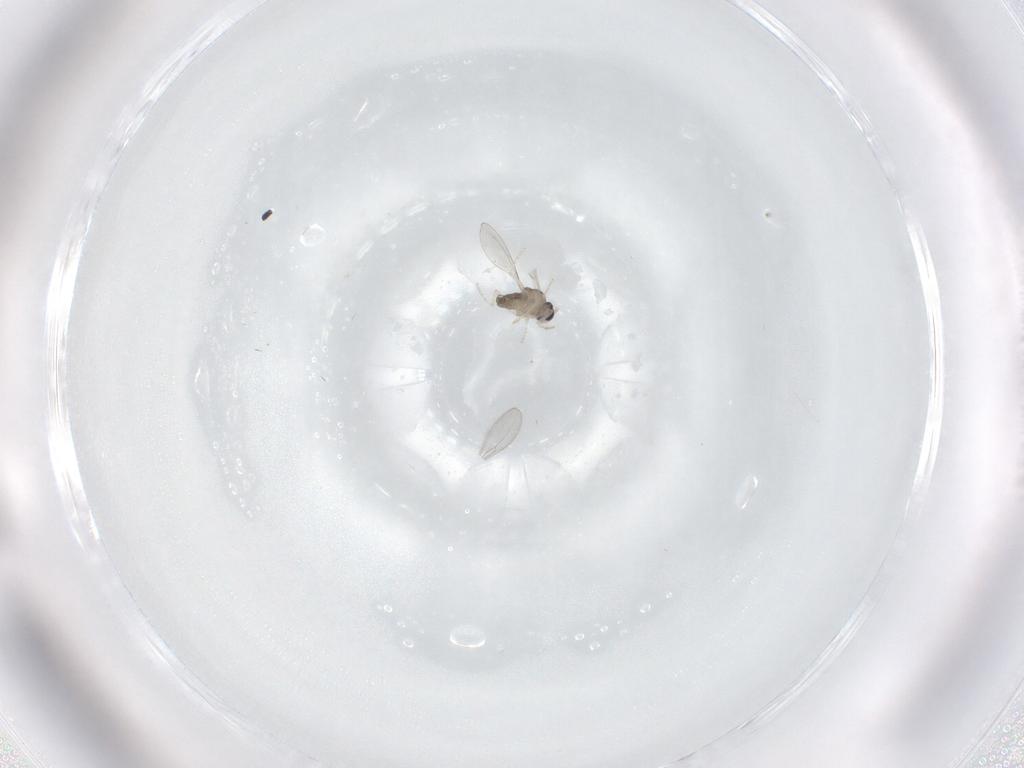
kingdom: Animalia
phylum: Arthropoda
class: Insecta
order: Diptera
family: Cecidomyiidae
